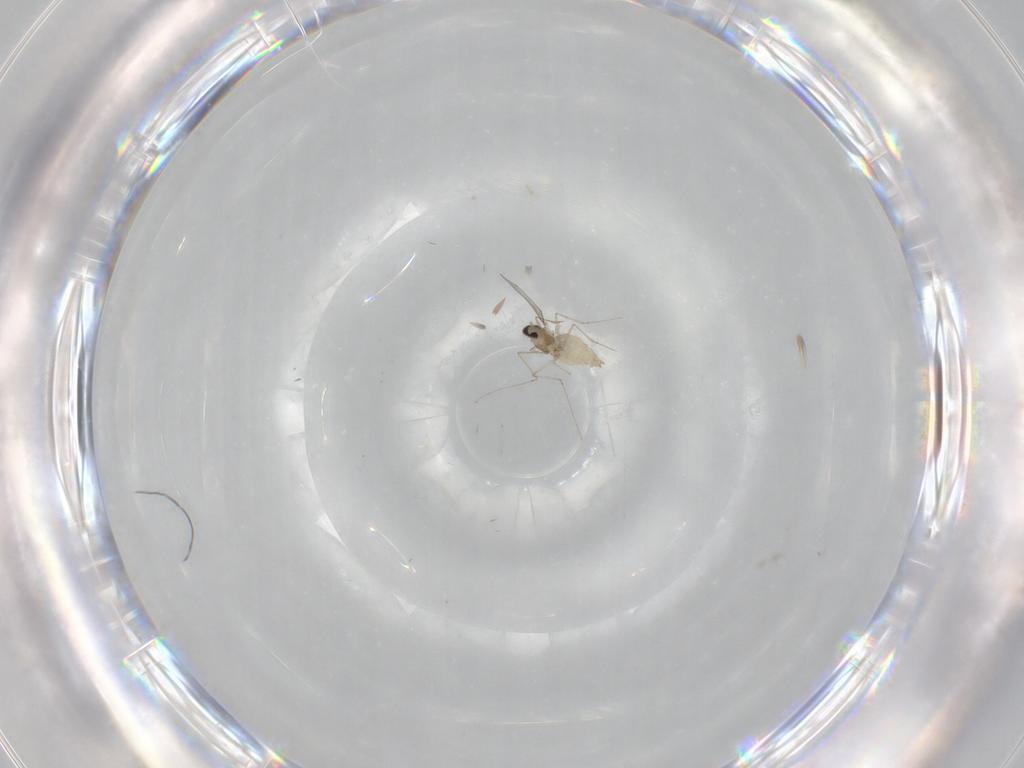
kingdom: Animalia
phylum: Arthropoda
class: Insecta
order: Diptera
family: Cecidomyiidae
